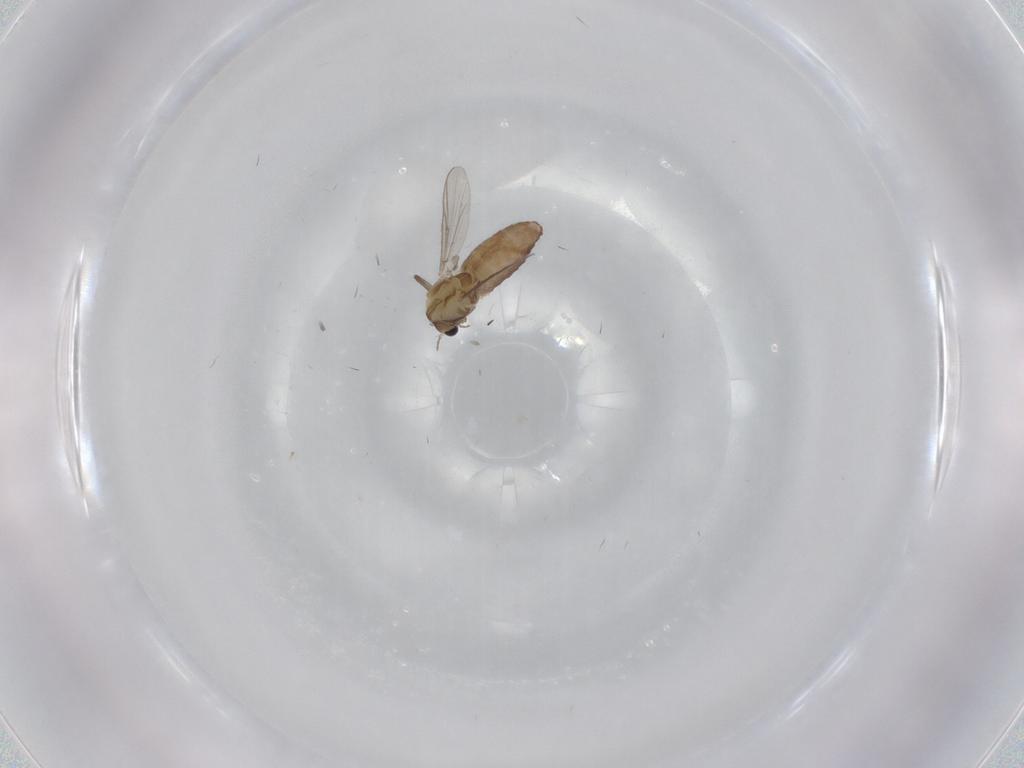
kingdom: Animalia
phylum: Arthropoda
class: Insecta
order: Diptera
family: Chironomidae
